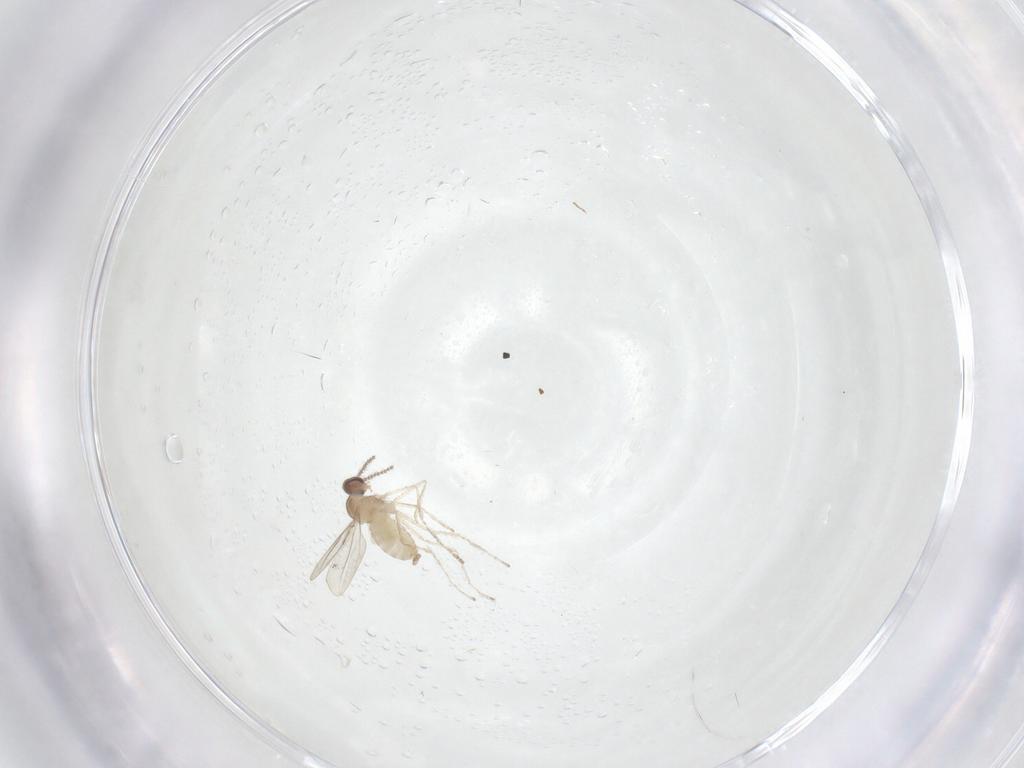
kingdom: Animalia
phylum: Arthropoda
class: Insecta
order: Diptera
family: Cecidomyiidae
